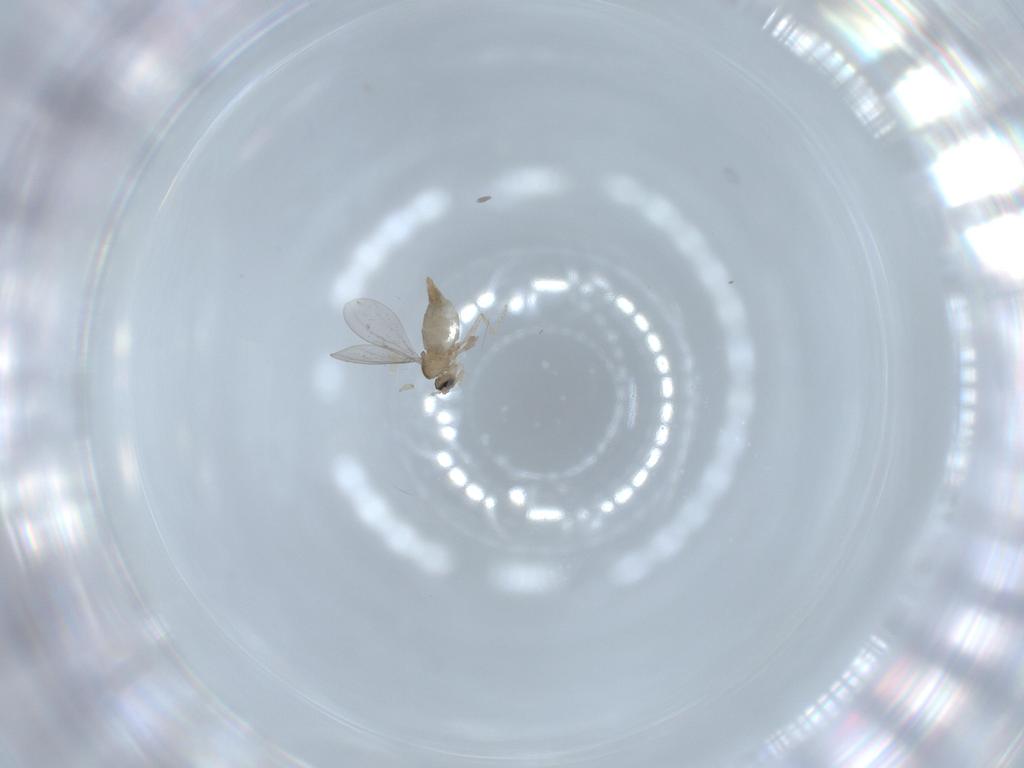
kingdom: Animalia
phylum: Arthropoda
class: Insecta
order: Diptera
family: Cecidomyiidae
